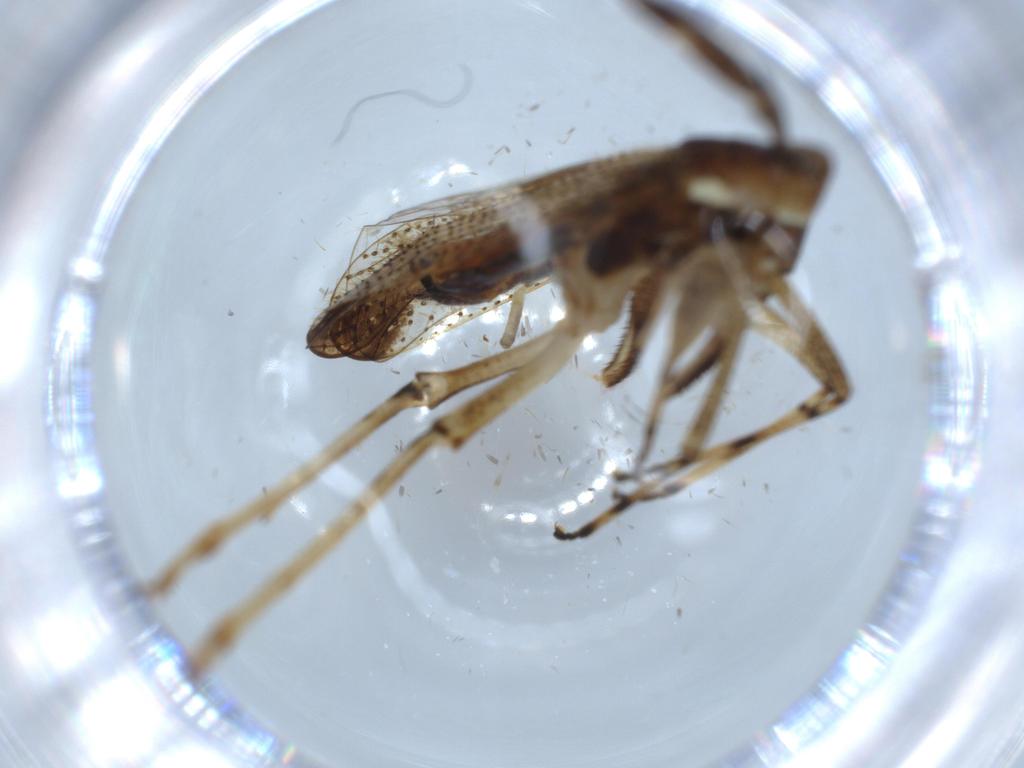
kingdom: Animalia
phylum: Arthropoda
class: Insecta
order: Hemiptera
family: Membracidae
